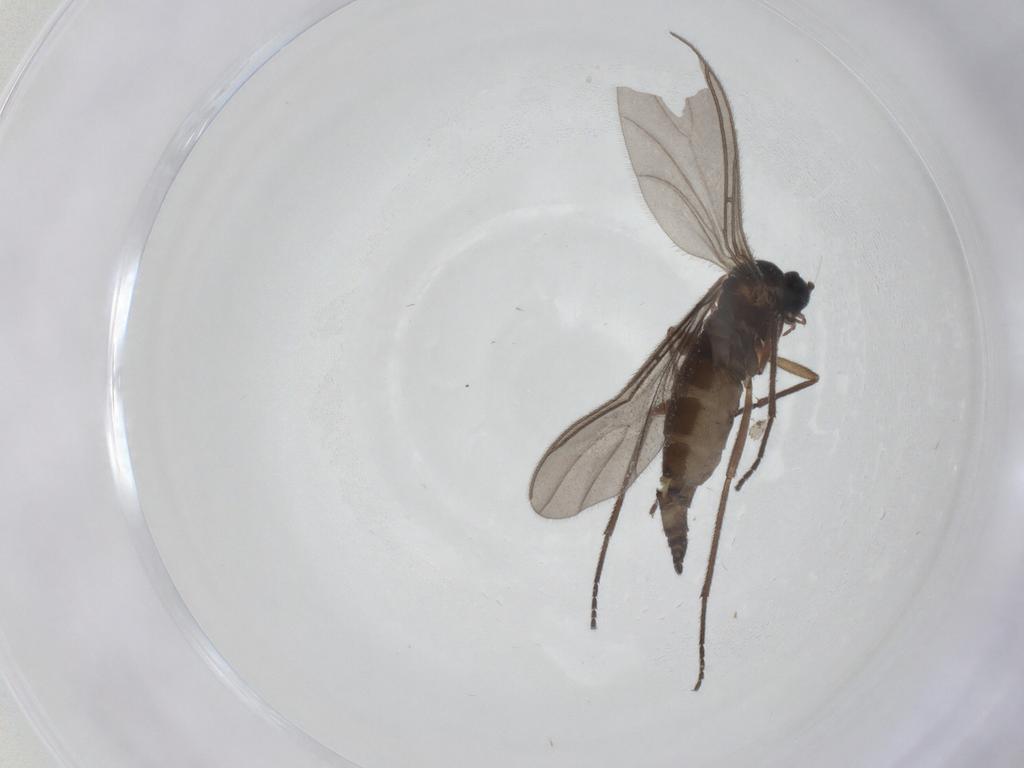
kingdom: Animalia
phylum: Arthropoda
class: Insecta
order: Diptera
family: Sciaridae
